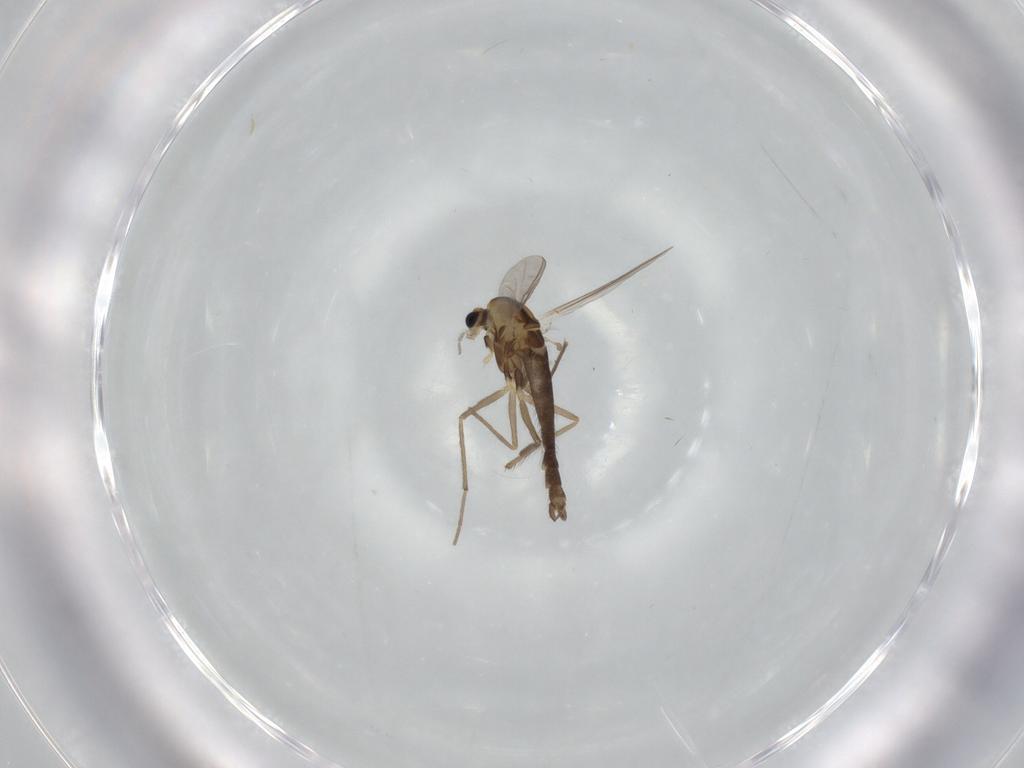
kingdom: Animalia
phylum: Arthropoda
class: Insecta
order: Diptera
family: Chironomidae
